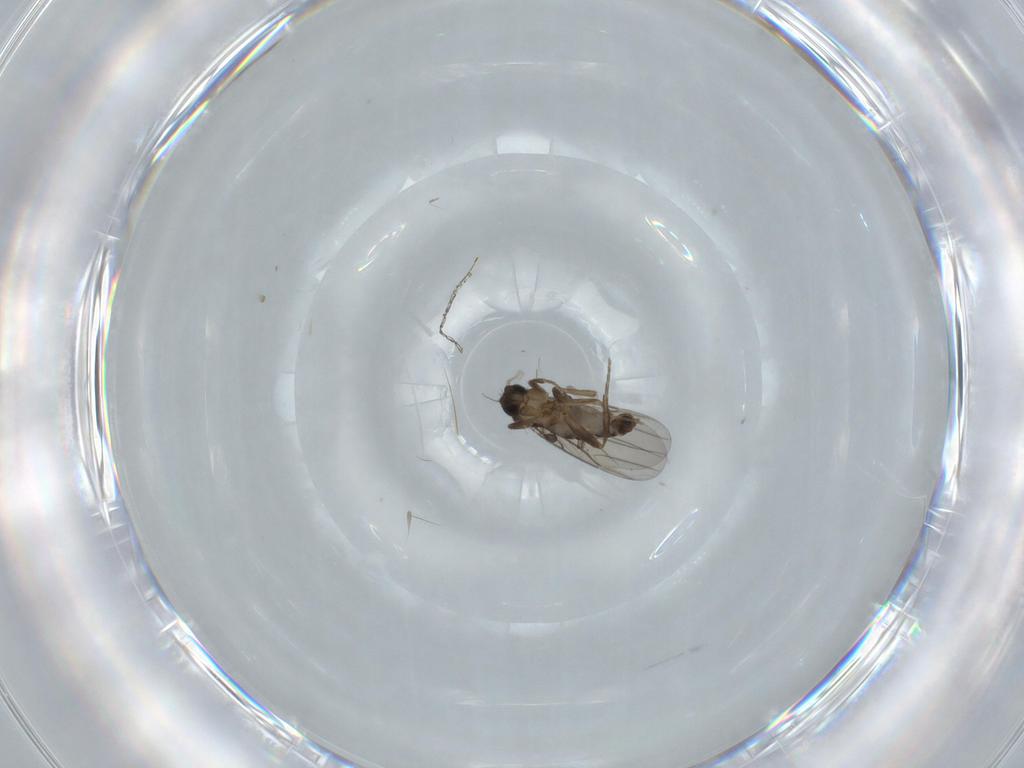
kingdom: Animalia
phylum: Arthropoda
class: Insecta
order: Diptera
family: Phoridae
